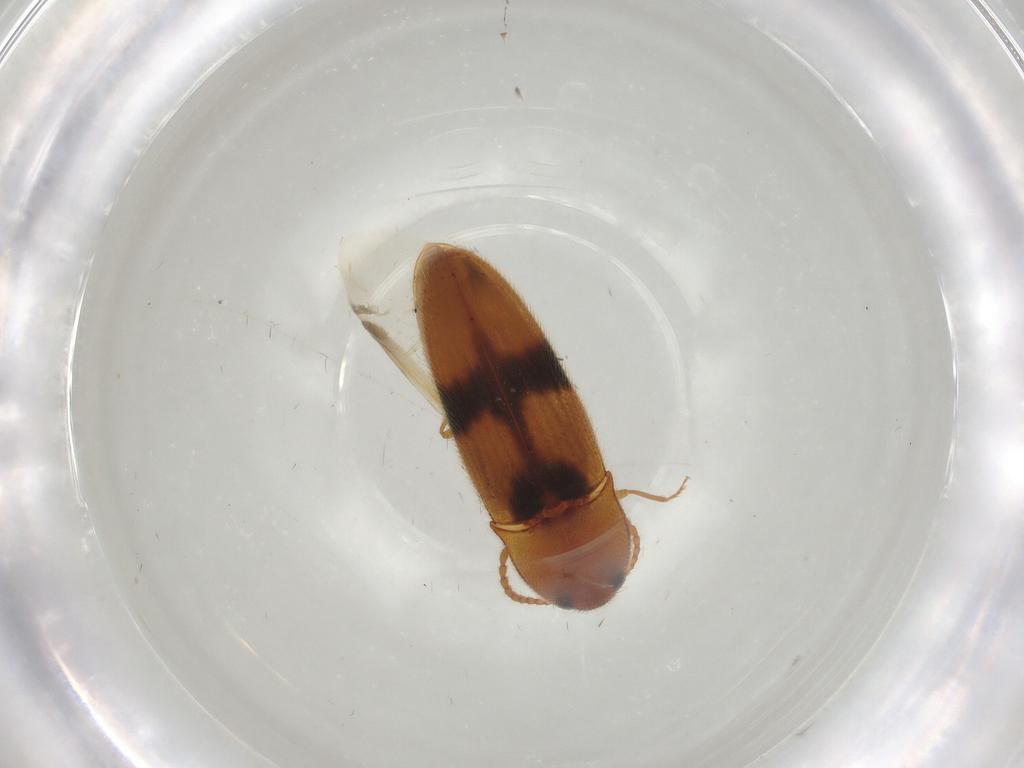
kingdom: Animalia
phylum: Arthropoda
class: Insecta
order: Coleoptera
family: Elateridae
